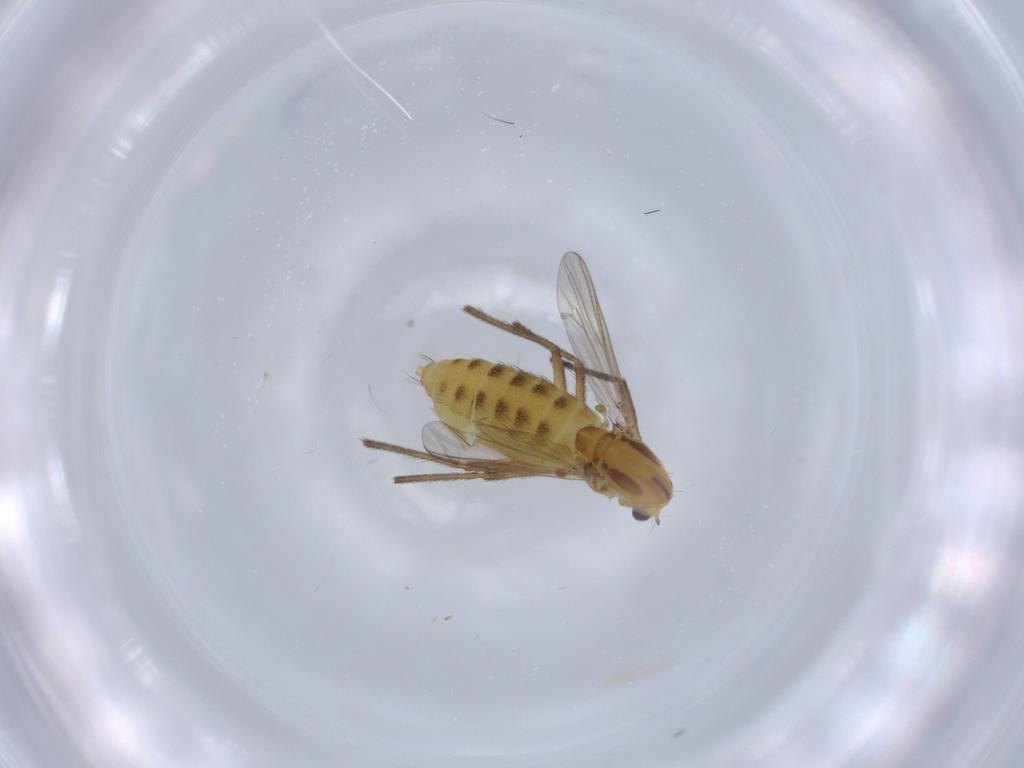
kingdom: Animalia
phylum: Arthropoda
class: Insecta
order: Diptera
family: Chironomidae
